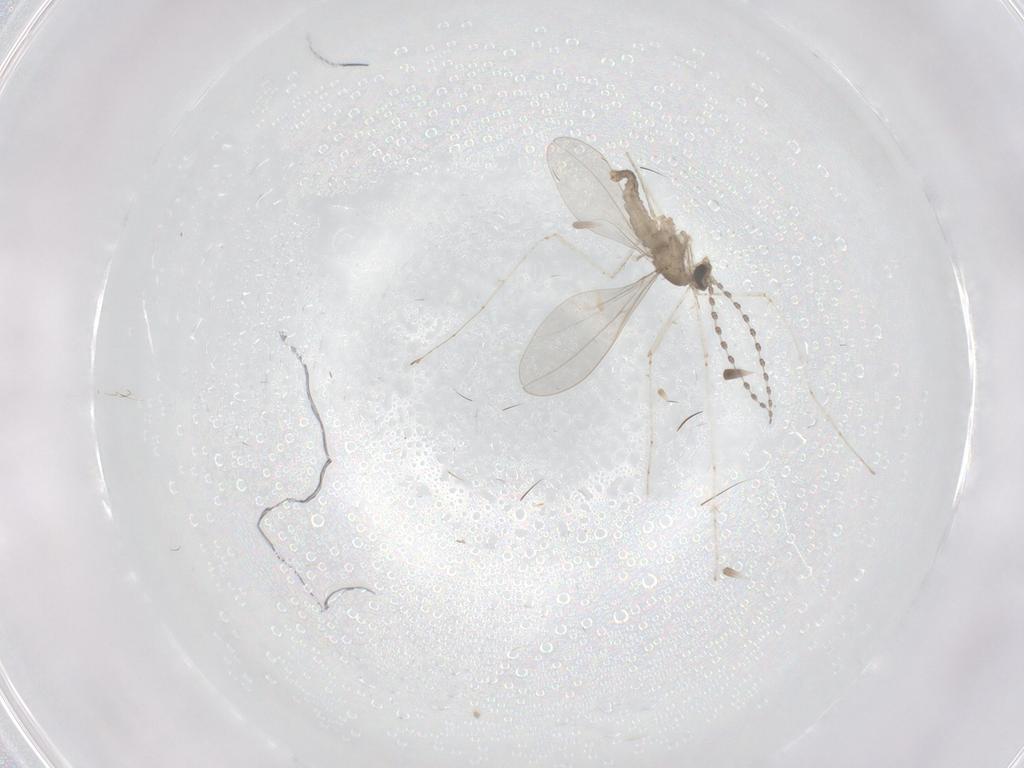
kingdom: Animalia
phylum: Arthropoda
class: Insecta
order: Diptera
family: Cecidomyiidae
